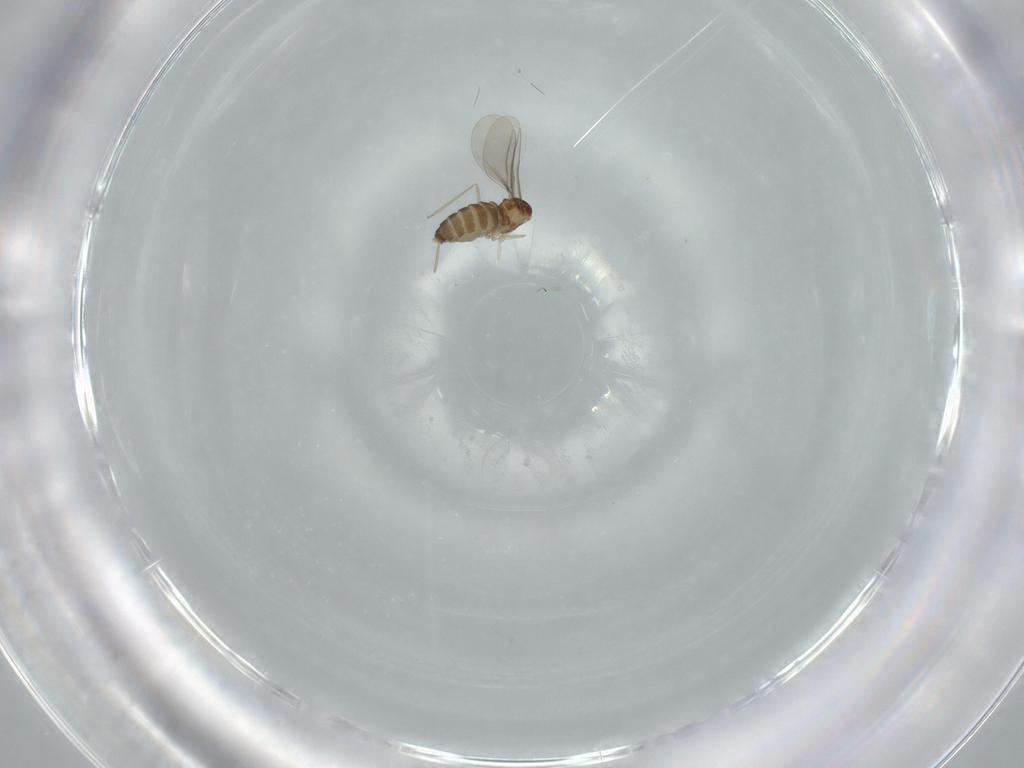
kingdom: Animalia
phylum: Arthropoda
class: Insecta
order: Diptera
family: Cecidomyiidae
